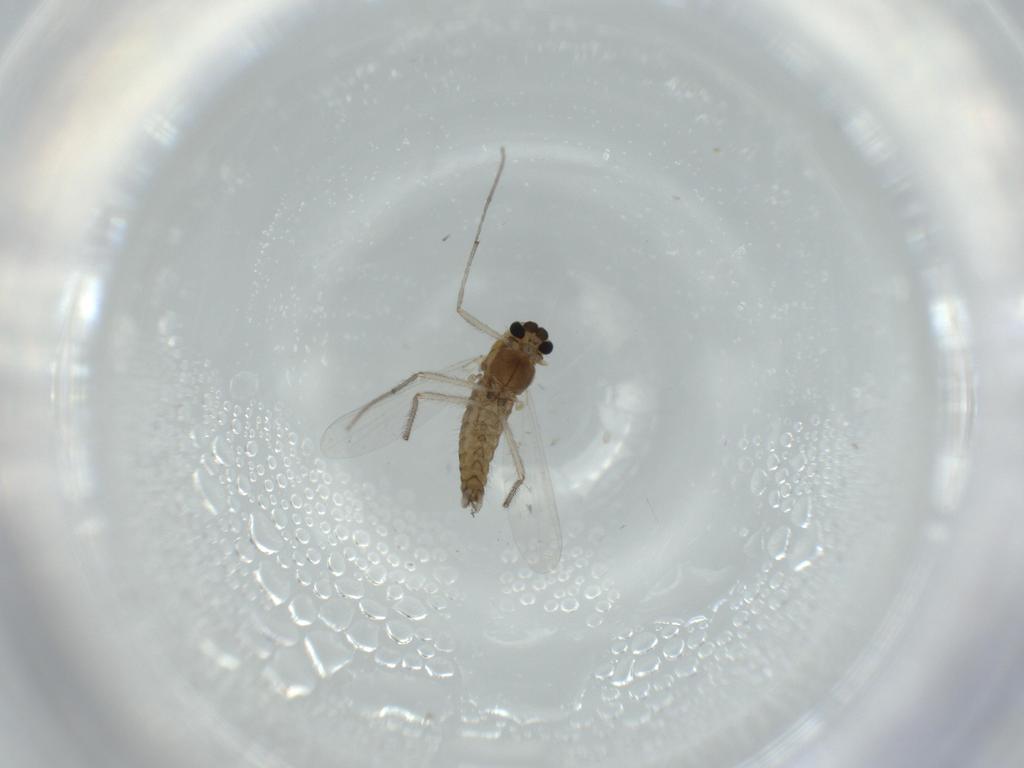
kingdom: Animalia
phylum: Arthropoda
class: Insecta
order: Diptera
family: Chironomidae
